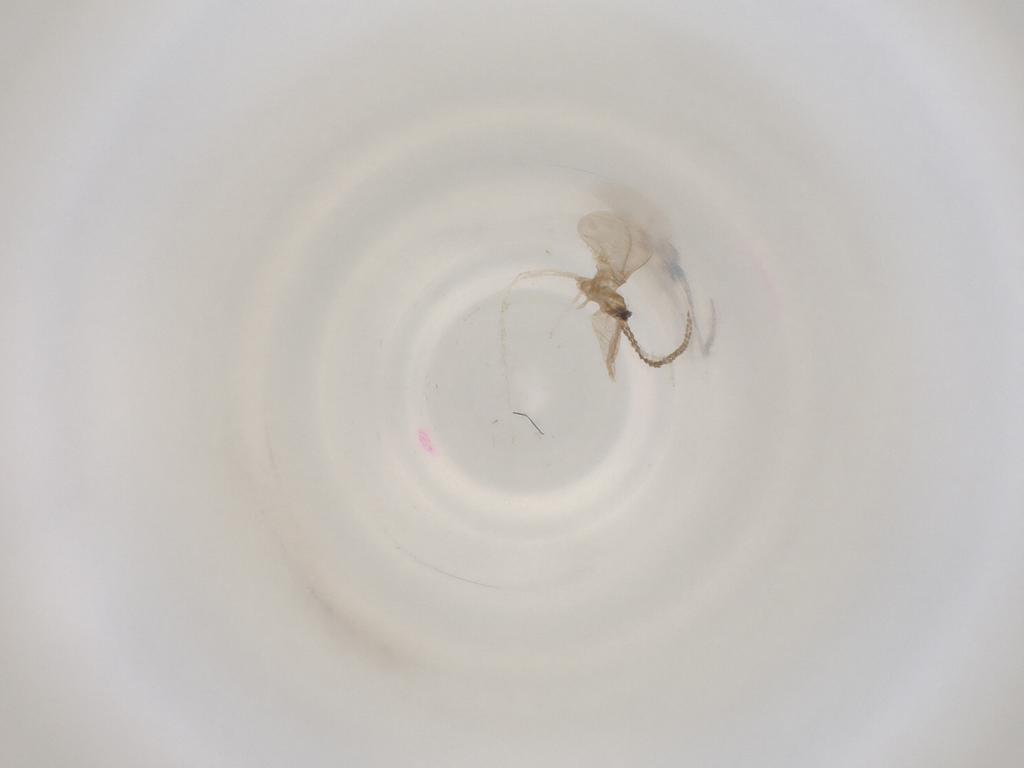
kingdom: Animalia
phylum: Arthropoda
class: Insecta
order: Diptera
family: Cecidomyiidae
